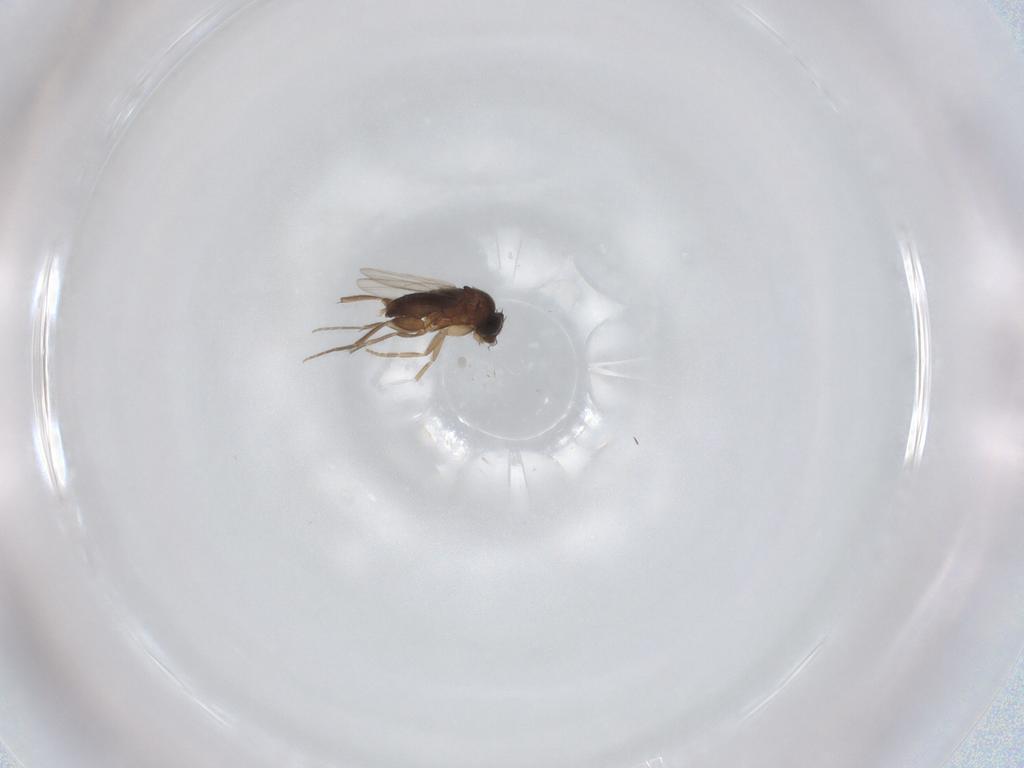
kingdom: Animalia
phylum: Arthropoda
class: Insecta
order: Diptera
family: Phoridae
